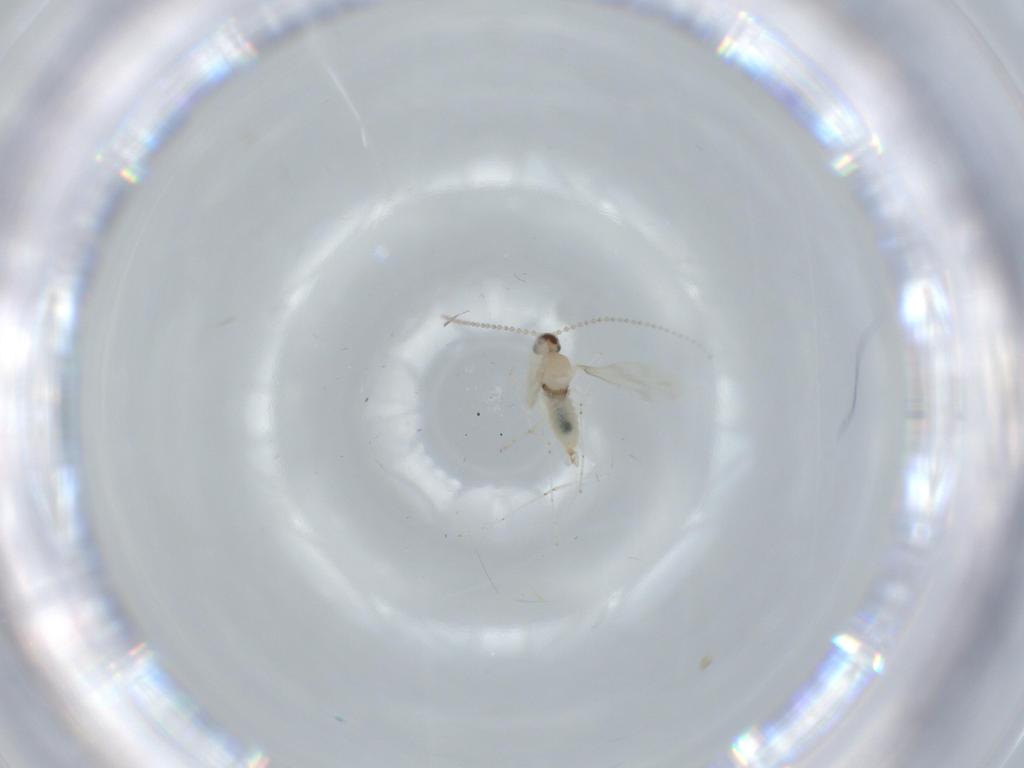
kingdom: Animalia
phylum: Arthropoda
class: Insecta
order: Diptera
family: Cecidomyiidae
